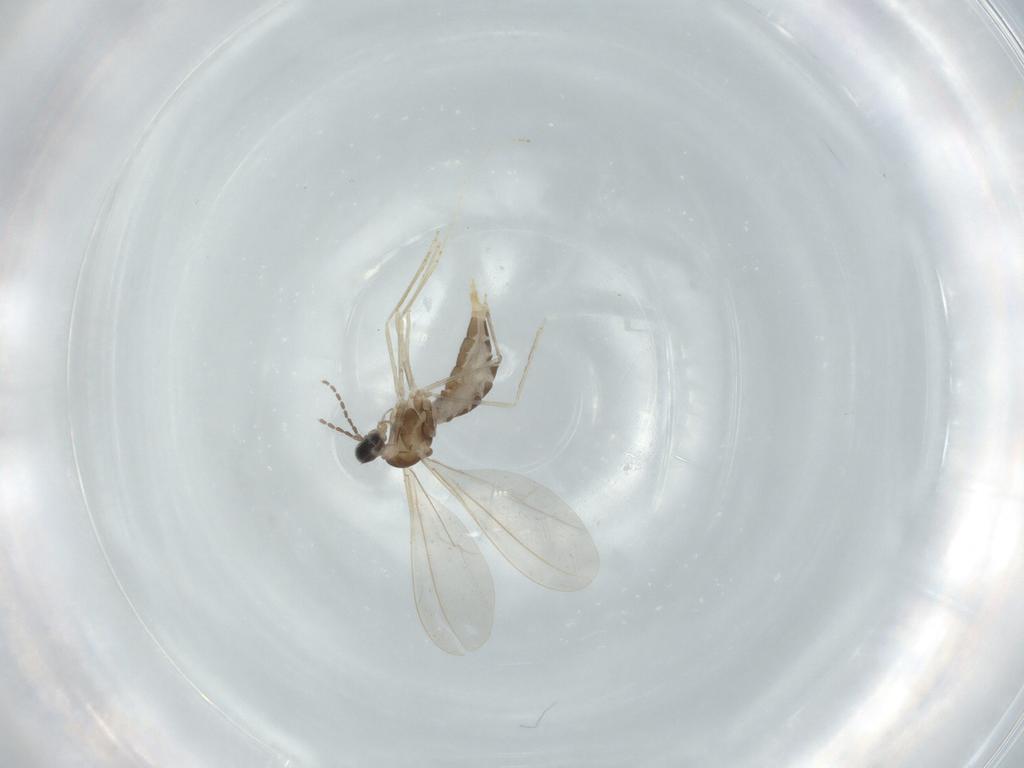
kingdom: Animalia
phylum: Arthropoda
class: Insecta
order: Diptera
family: Cecidomyiidae
